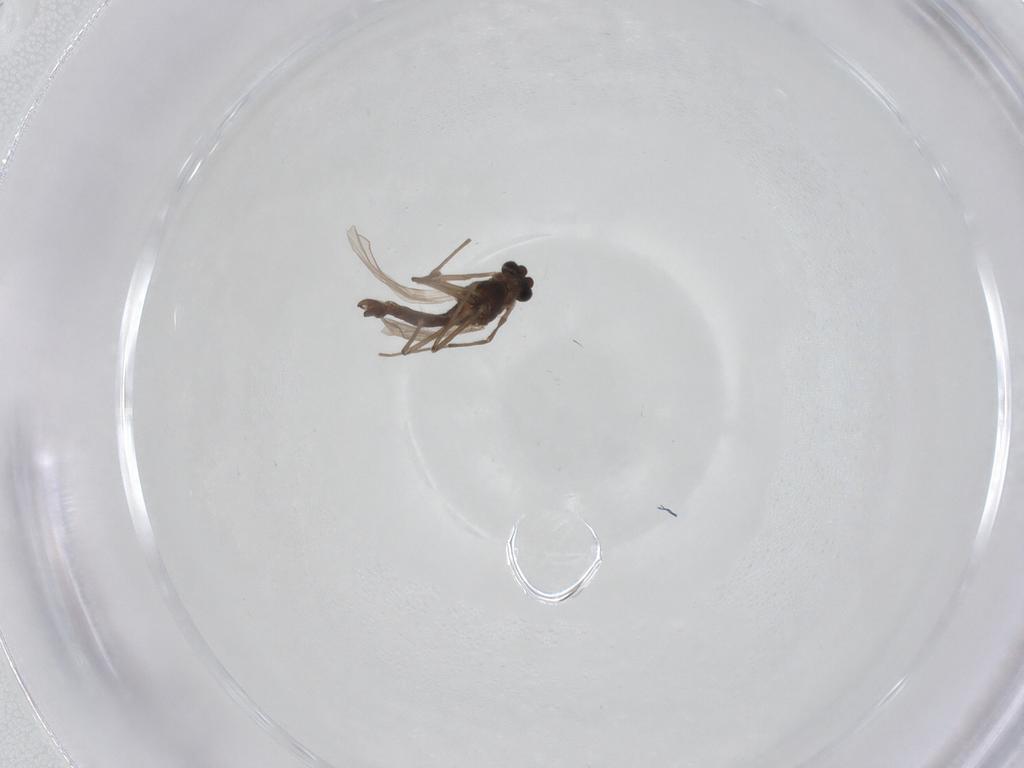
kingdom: Animalia
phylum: Arthropoda
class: Insecta
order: Diptera
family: Chironomidae
